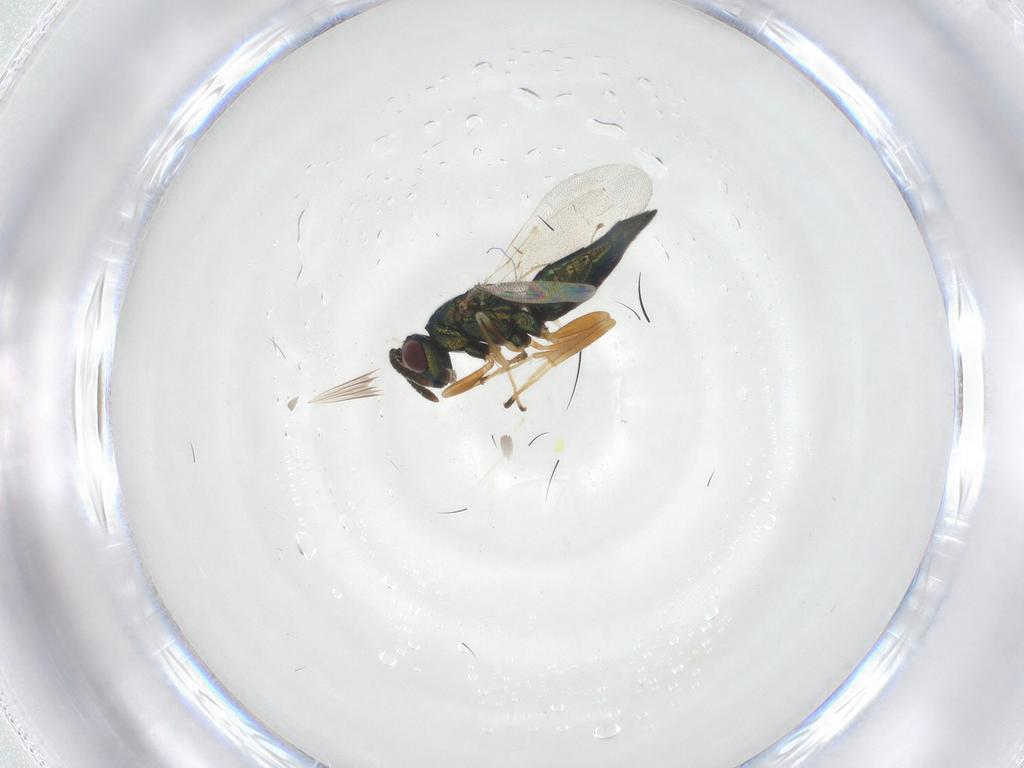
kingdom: Animalia
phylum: Arthropoda
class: Insecta
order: Hymenoptera
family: Pteromalidae
